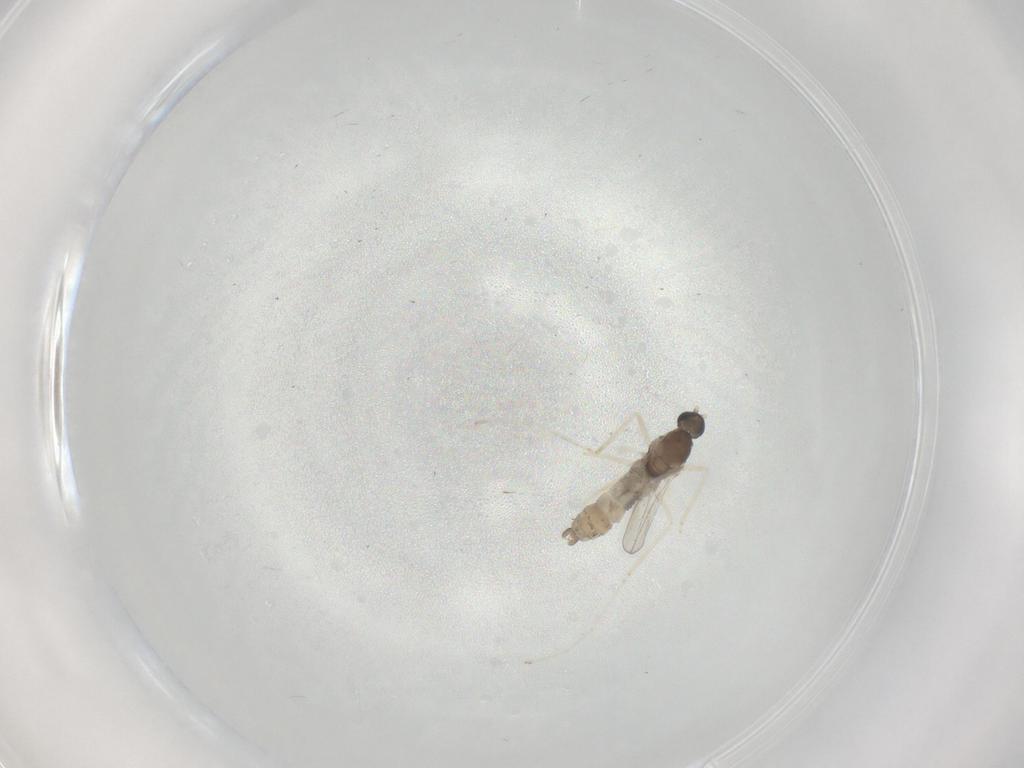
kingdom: Animalia
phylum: Arthropoda
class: Insecta
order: Diptera
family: Cecidomyiidae
